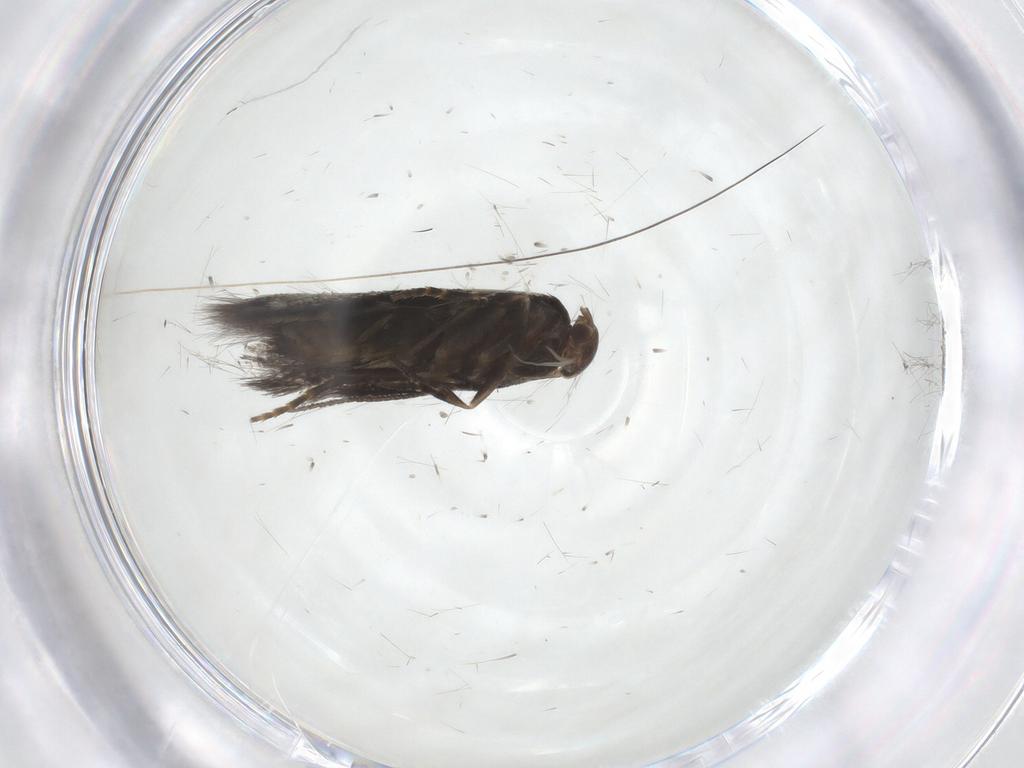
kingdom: Animalia
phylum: Arthropoda
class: Insecta
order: Lepidoptera
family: Elachistidae
